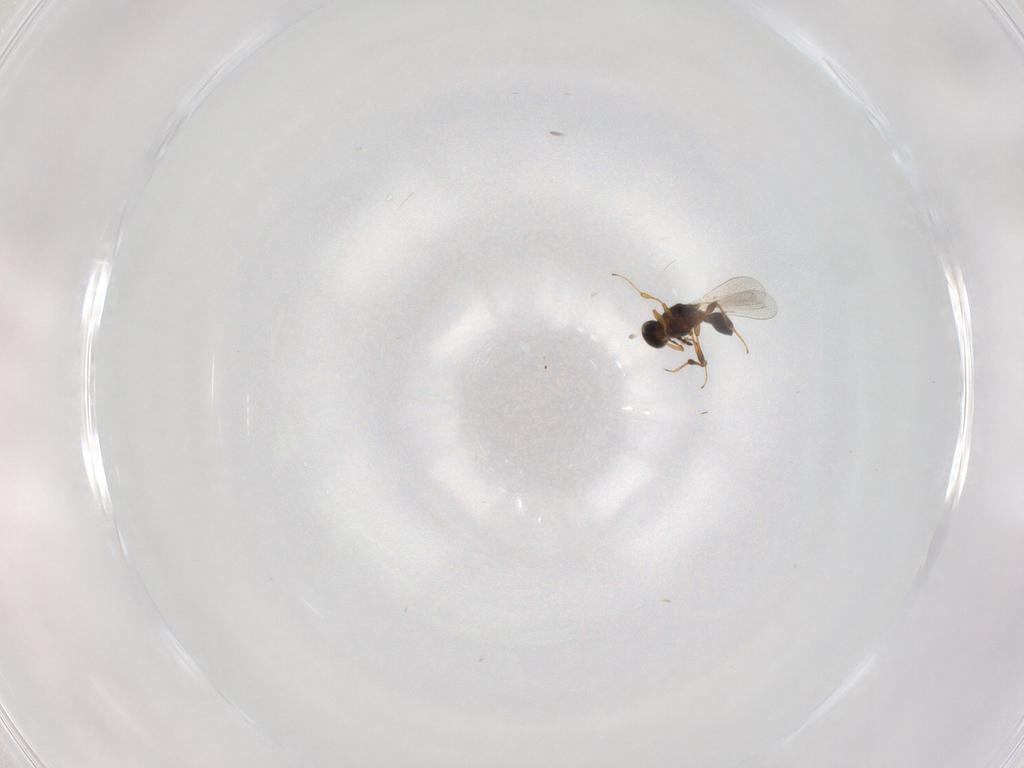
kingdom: Animalia
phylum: Arthropoda
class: Insecta
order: Hymenoptera
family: Platygastridae
